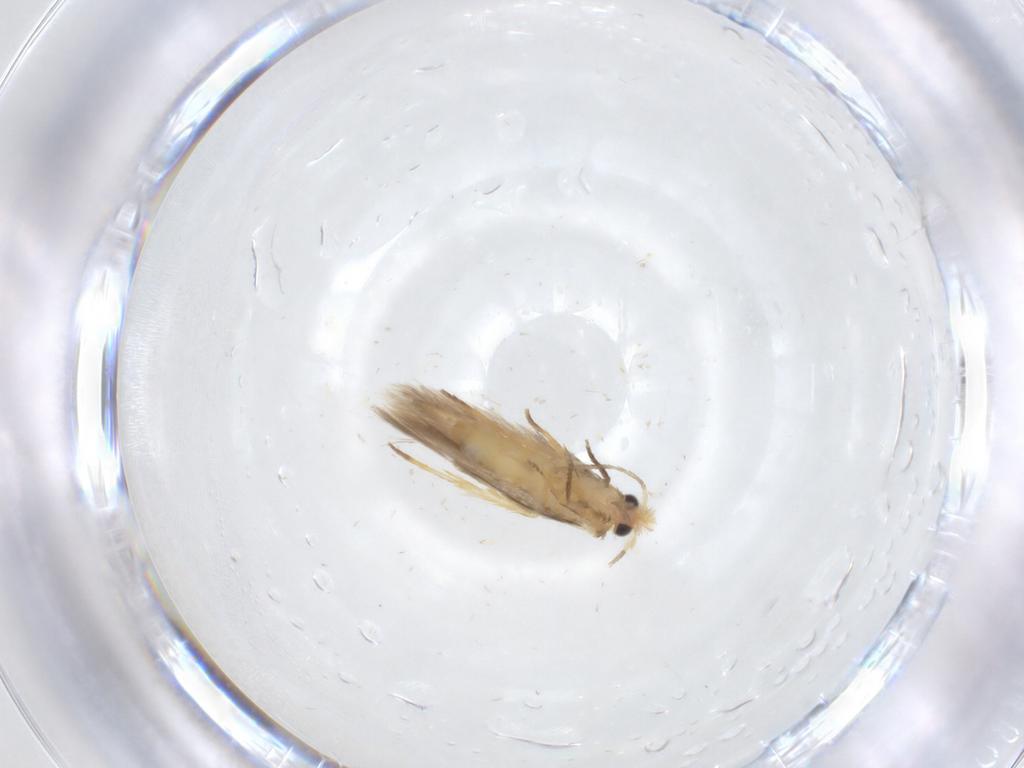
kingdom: Animalia
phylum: Arthropoda
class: Insecta
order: Lepidoptera
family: Nepticulidae
